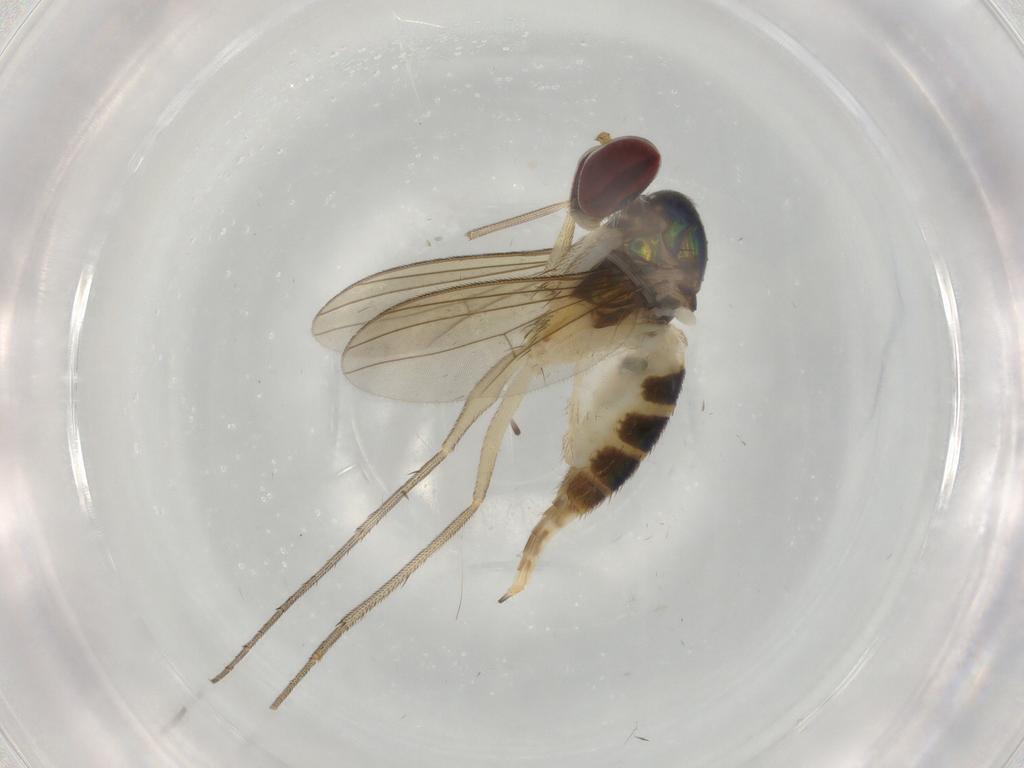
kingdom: Animalia
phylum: Arthropoda
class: Insecta
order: Diptera
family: Dolichopodidae
